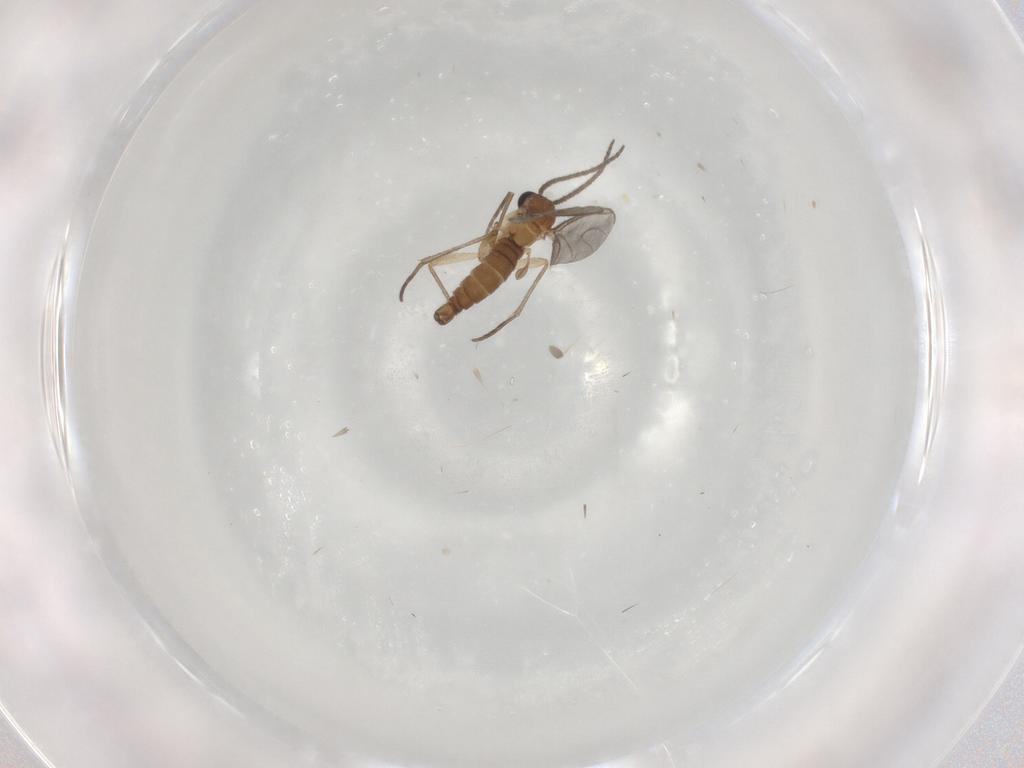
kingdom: Animalia
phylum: Arthropoda
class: Insecta
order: Diptera
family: Sciaridae
